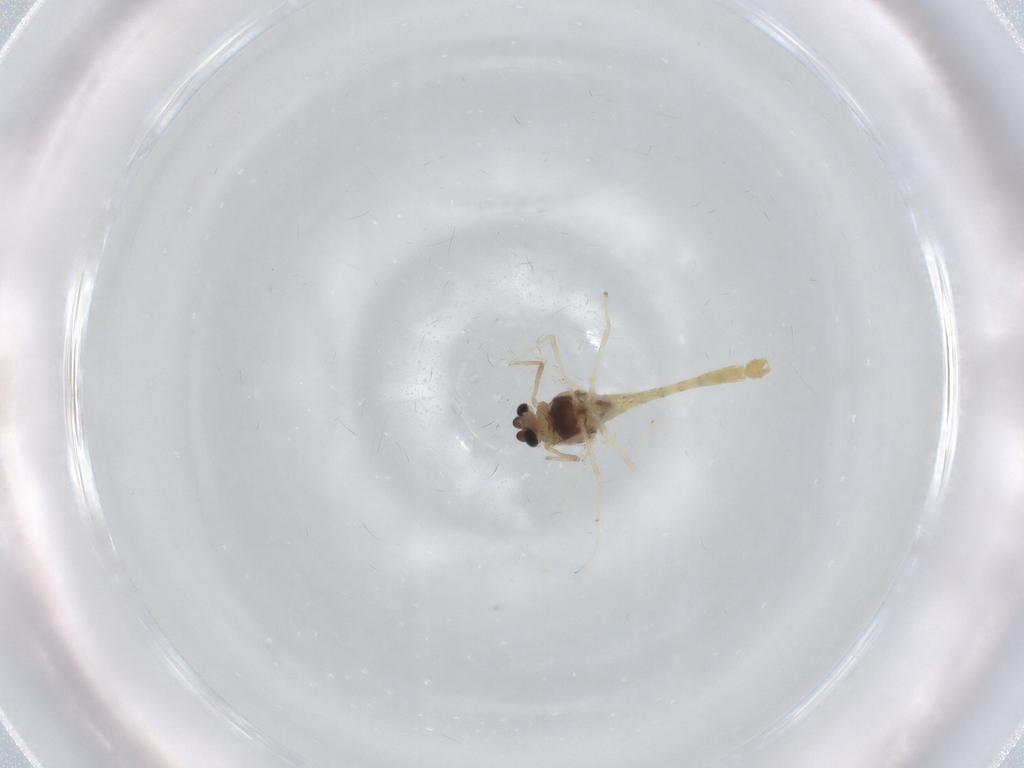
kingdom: Animalia
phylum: Arthropoda
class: Insecta
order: Diptera
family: Chironomidae
